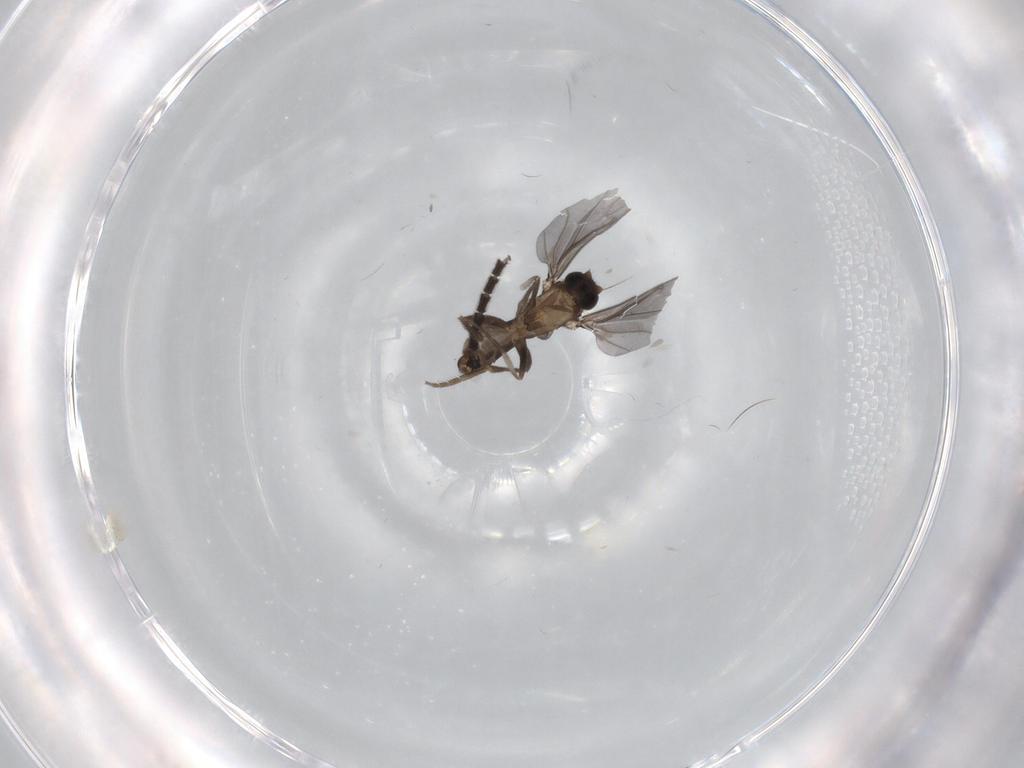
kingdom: Animalia
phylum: Arthropoda
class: Insecta
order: Diptera
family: Phoridae
